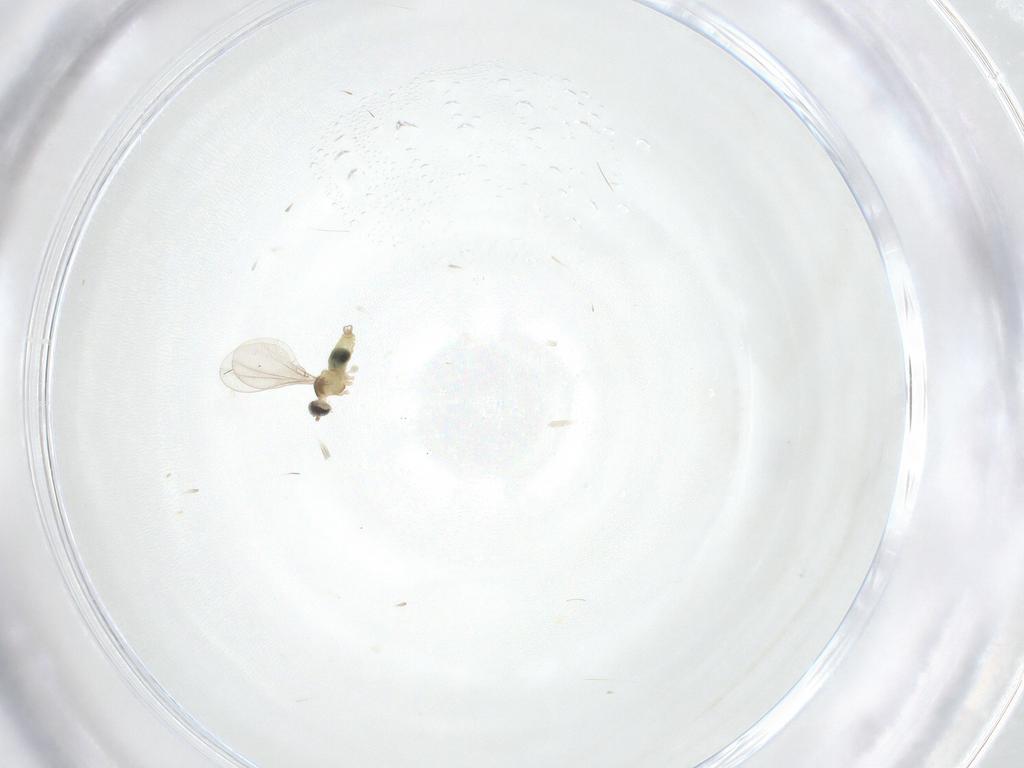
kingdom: Animalia
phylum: Arthropoda
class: Insecta
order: Diptera
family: Cecidomyiidae
